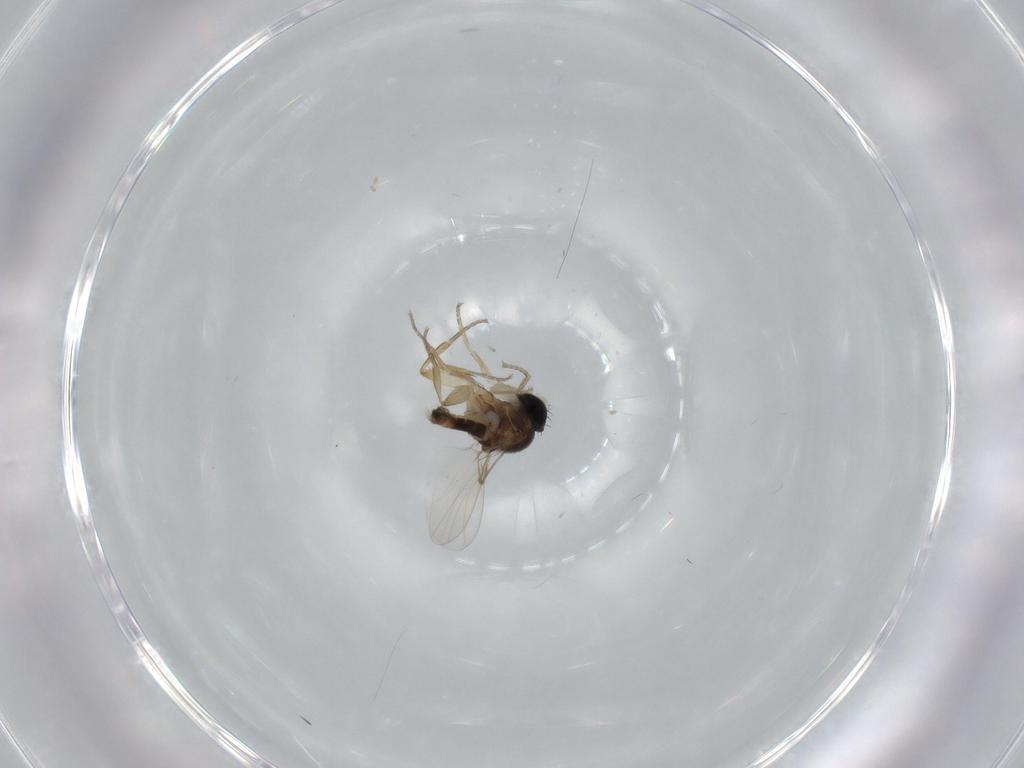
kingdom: Animalia
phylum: Arthropoda
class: Insecta
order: Diptera
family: Phoridae
